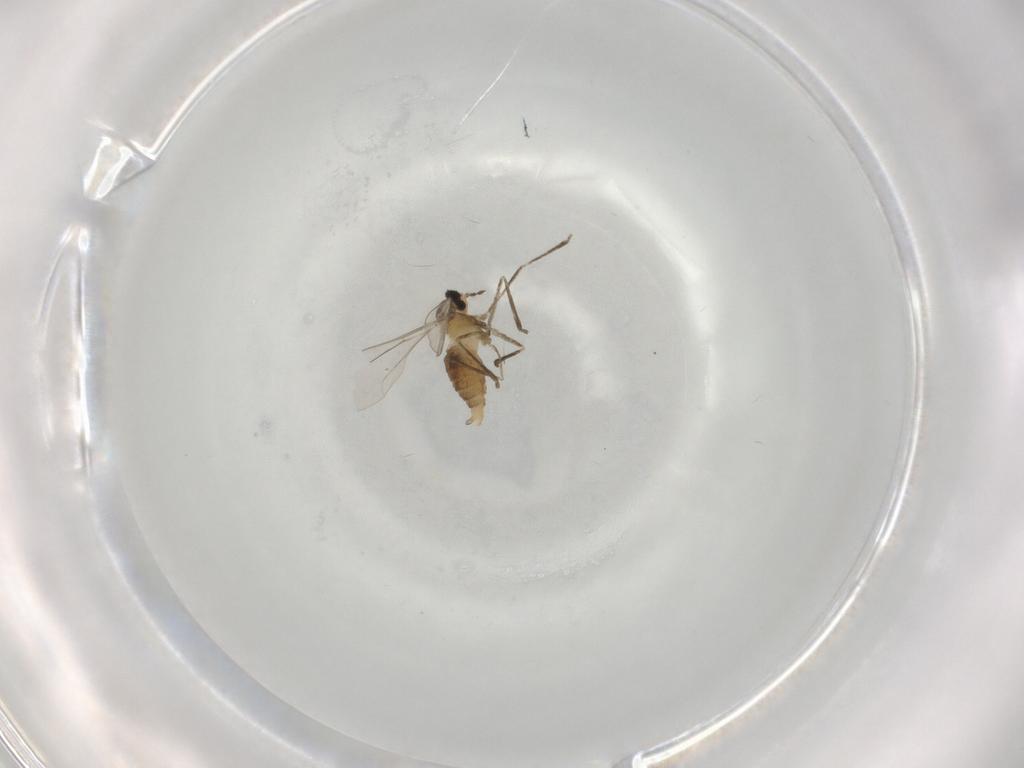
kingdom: Animalia
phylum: Arthropoda
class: Insecta
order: Diptera
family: Cecidomyiidae
